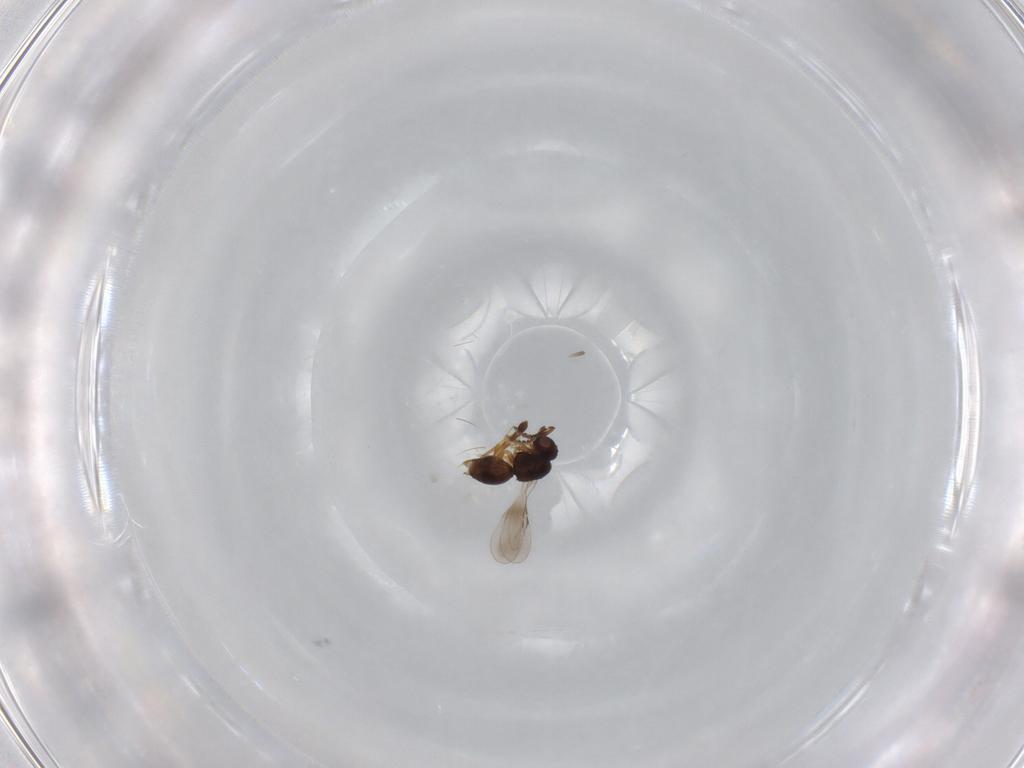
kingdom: Animalia
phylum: Arthropoda
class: Insecta
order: Hymenoptera
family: Ceraphronidae
